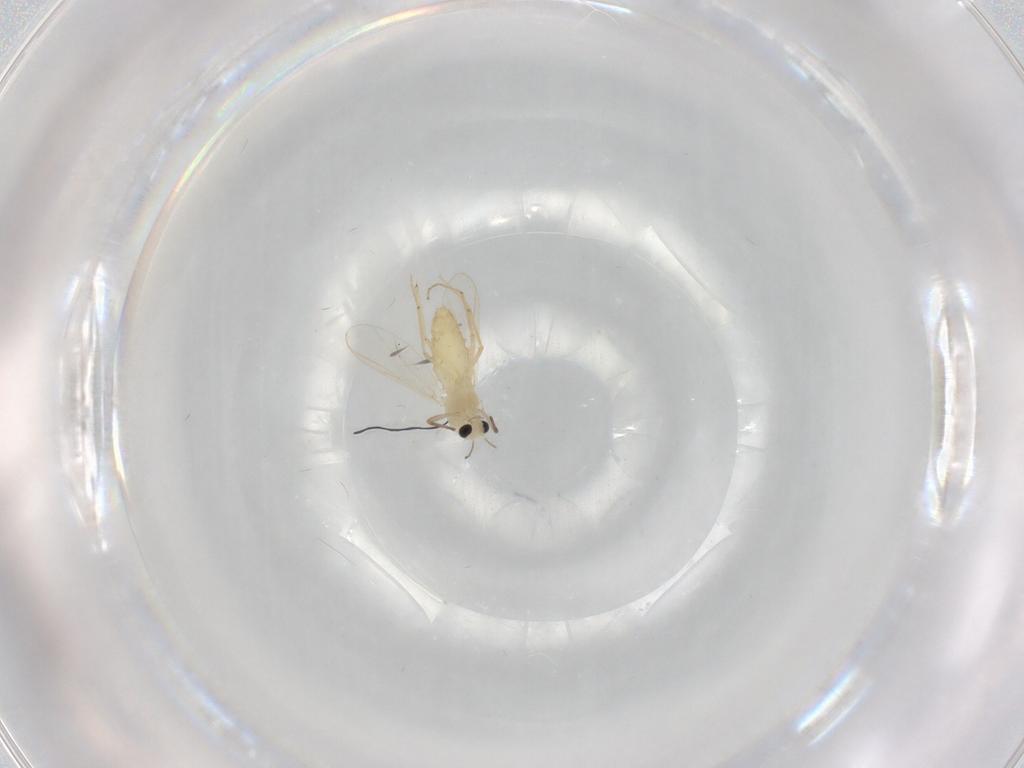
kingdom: Animalia
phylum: Arthropoda
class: Insecta
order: Diptera
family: Chironomidae
